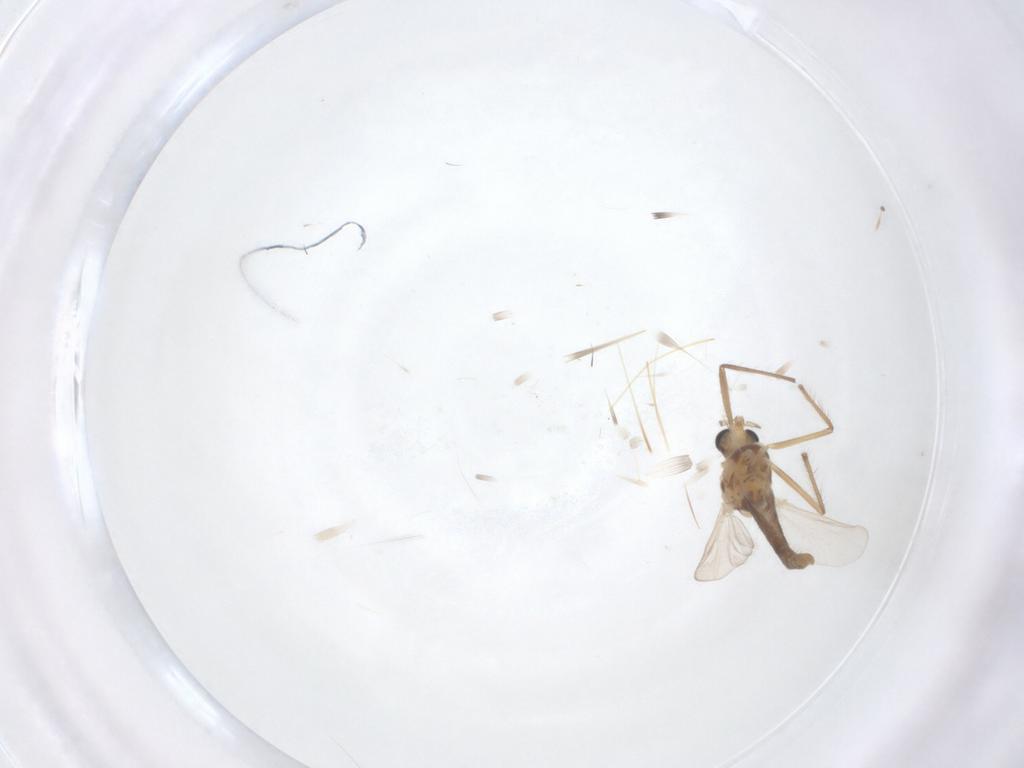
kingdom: Animalia
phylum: Arthropoda
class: Insecta
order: Diptera
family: Chironomidae
